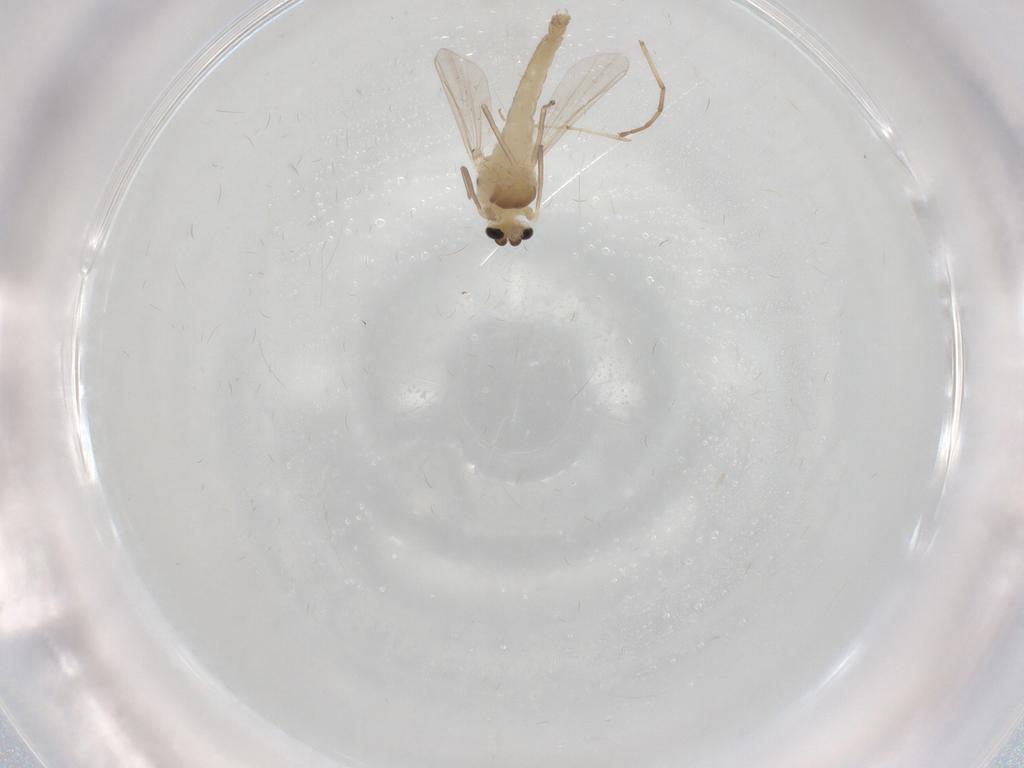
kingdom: Animalia
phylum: Arthropoda
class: Insecta
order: Diptera
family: Chironomidae
